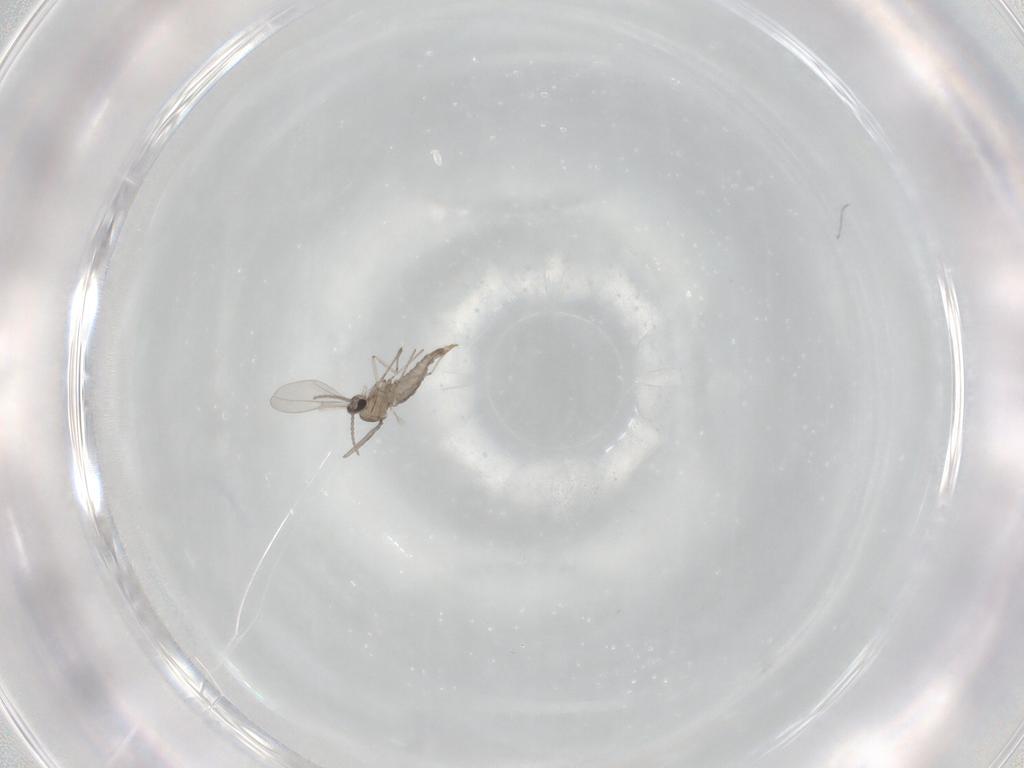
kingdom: Animalia
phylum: Arthropoda
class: Insecta
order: Diptera
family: Cecidomyiidae
